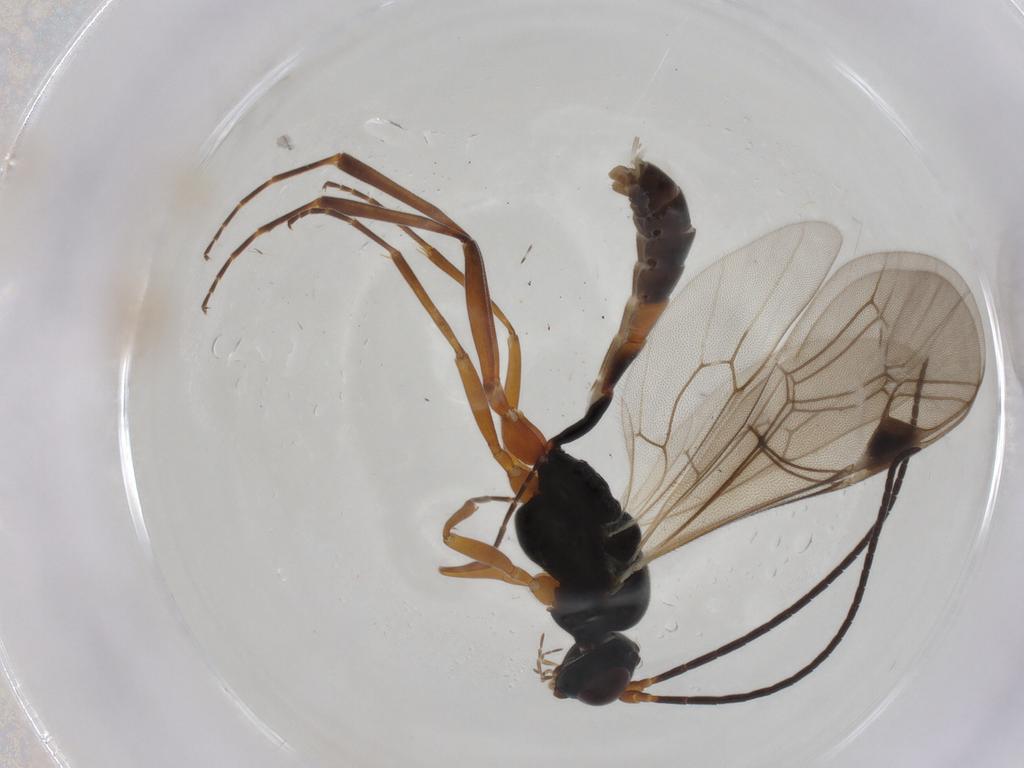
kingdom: Animalia
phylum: Arthropoda
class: Insecta
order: Hymenoptera
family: Ichneumonidae
